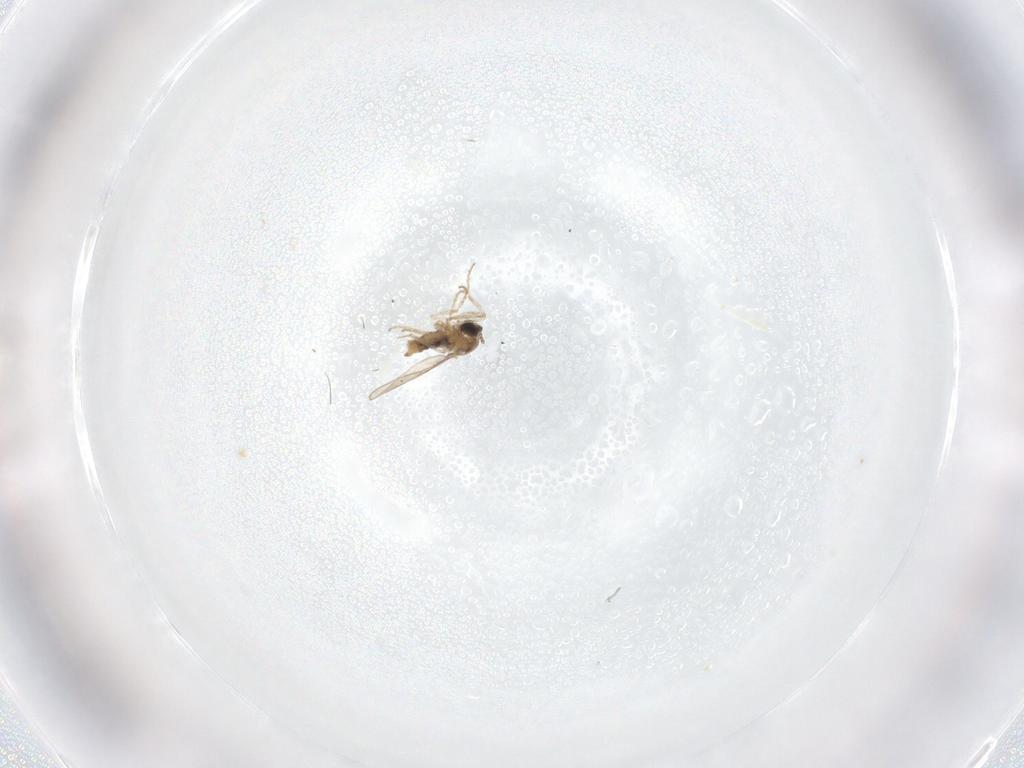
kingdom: Animalia
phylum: Arthropoda
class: Insecta
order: Diptera
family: Cecidomyiidae
